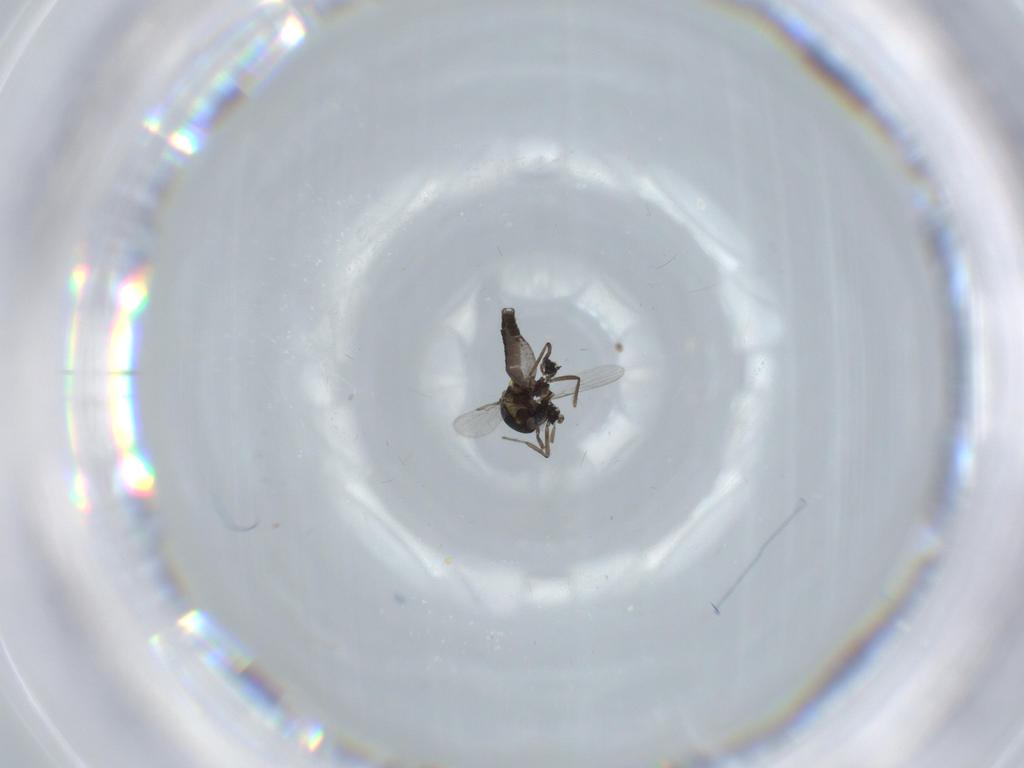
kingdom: Animalia
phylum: Arthropoda
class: Insecta
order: Diptera
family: Ceratopogonidae
